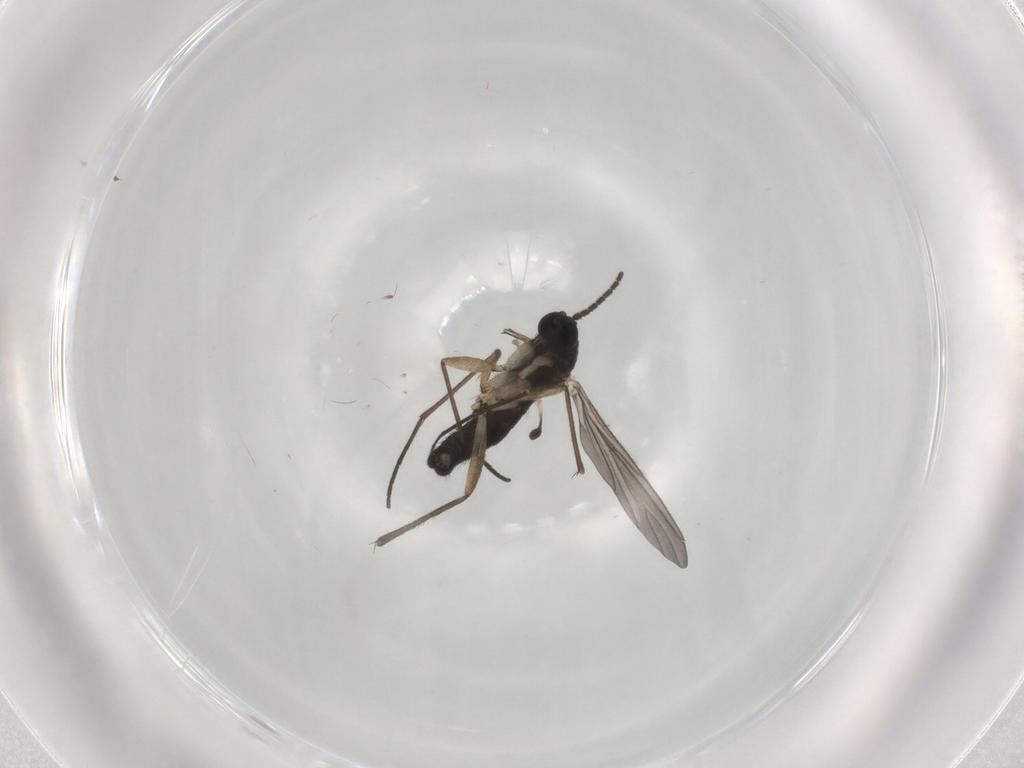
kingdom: Animalia
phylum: Arthropoda
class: Insecta
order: Diptera
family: Sciaridae
